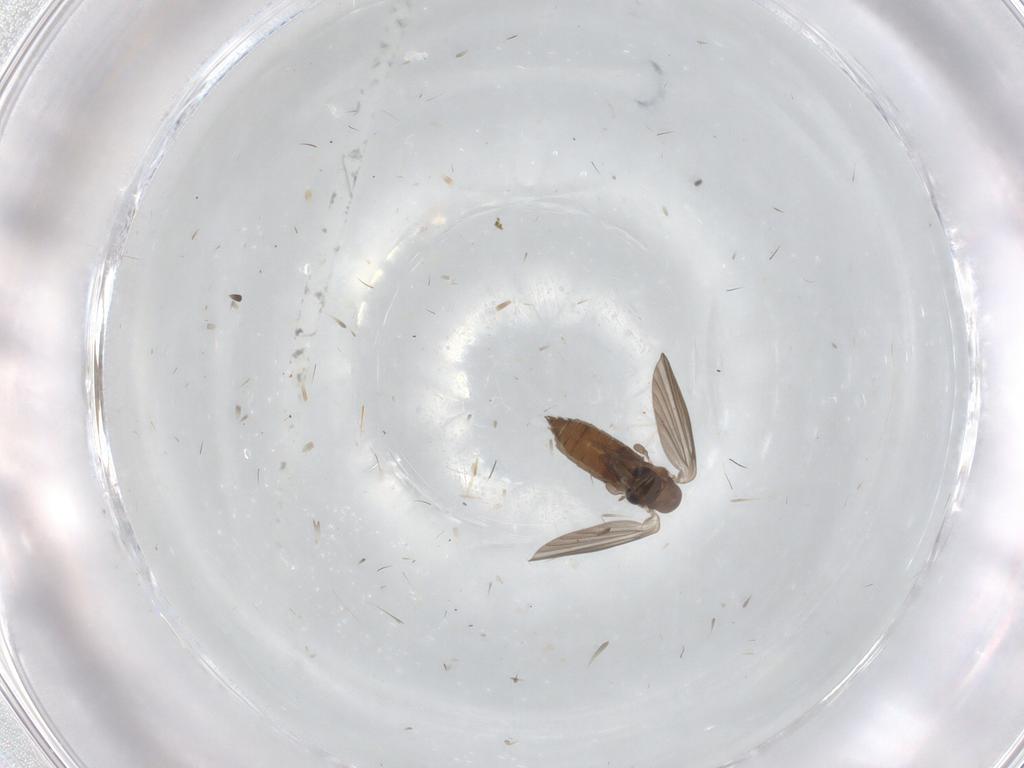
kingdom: Animalia
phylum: Arthropoda
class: Insecta
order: Diptera
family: Cecidomyiidae
